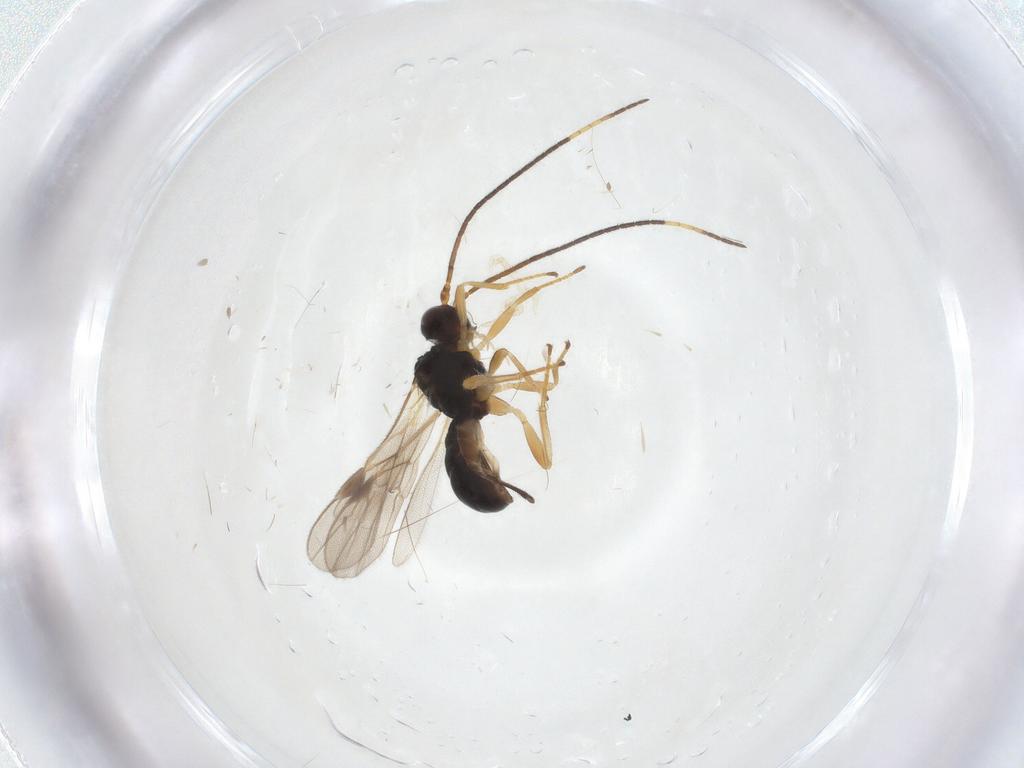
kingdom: Animalia
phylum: Arthropoda
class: Insecta
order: Hymenoptera
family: Braconidae
